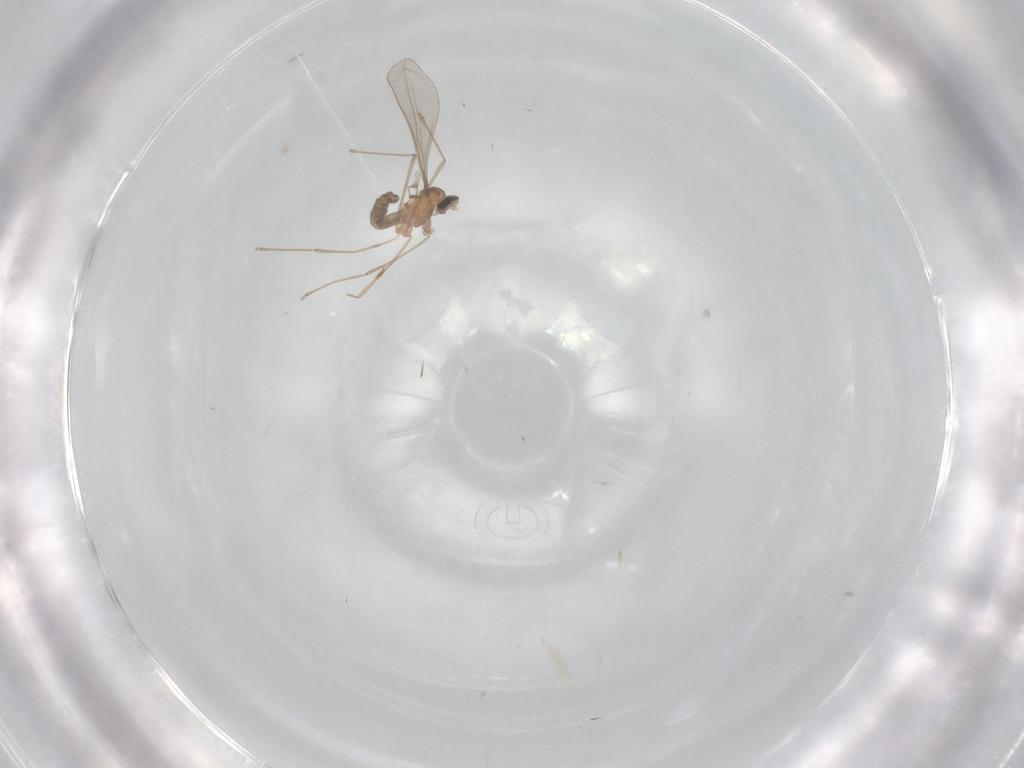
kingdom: Animalia
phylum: Arthropoda
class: Insecta
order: Diptera
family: Cecidomyiidae
